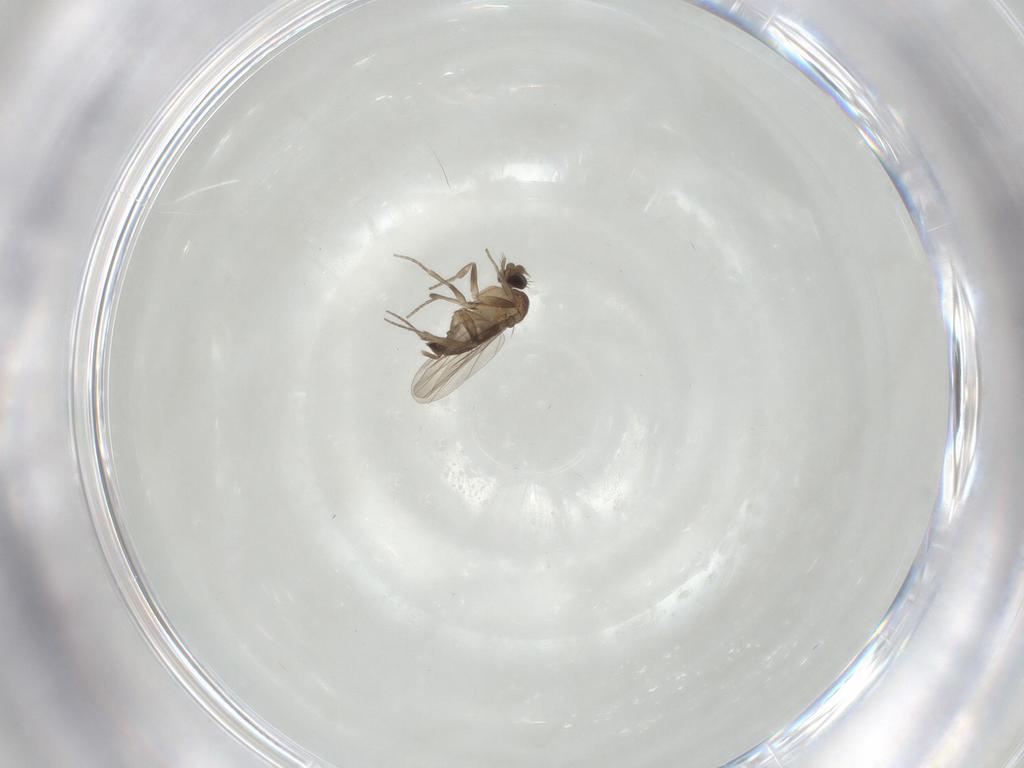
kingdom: Animalia
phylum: Arthropoda
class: Insecta
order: Diptera
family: Phoridae
